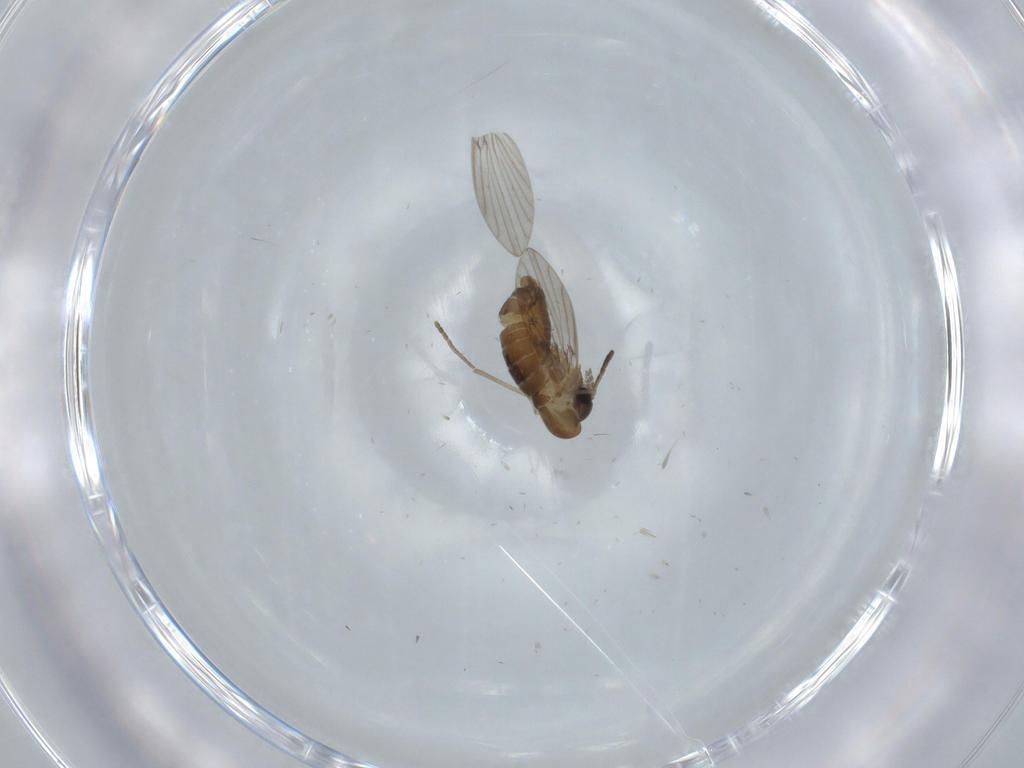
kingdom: Animalia
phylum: Arthropoda
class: Insecta
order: Diptera
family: Psychodidae
